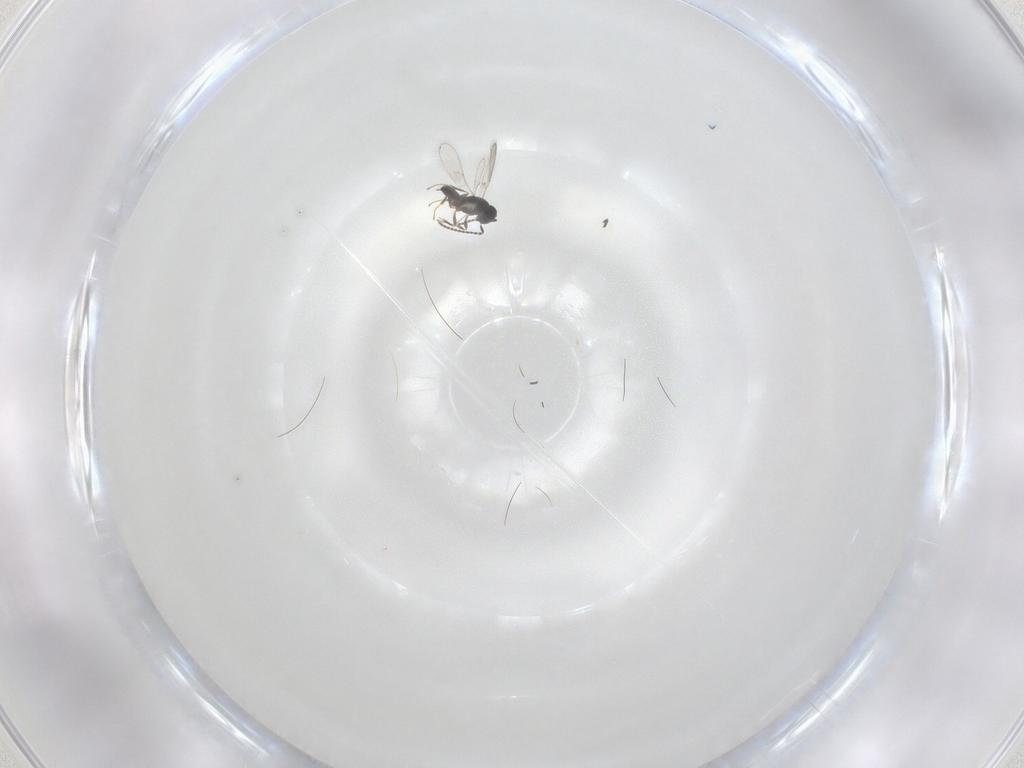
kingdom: Animalia
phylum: Arthropoda
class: Insecta
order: Hymenoptera
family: Scelionidae
